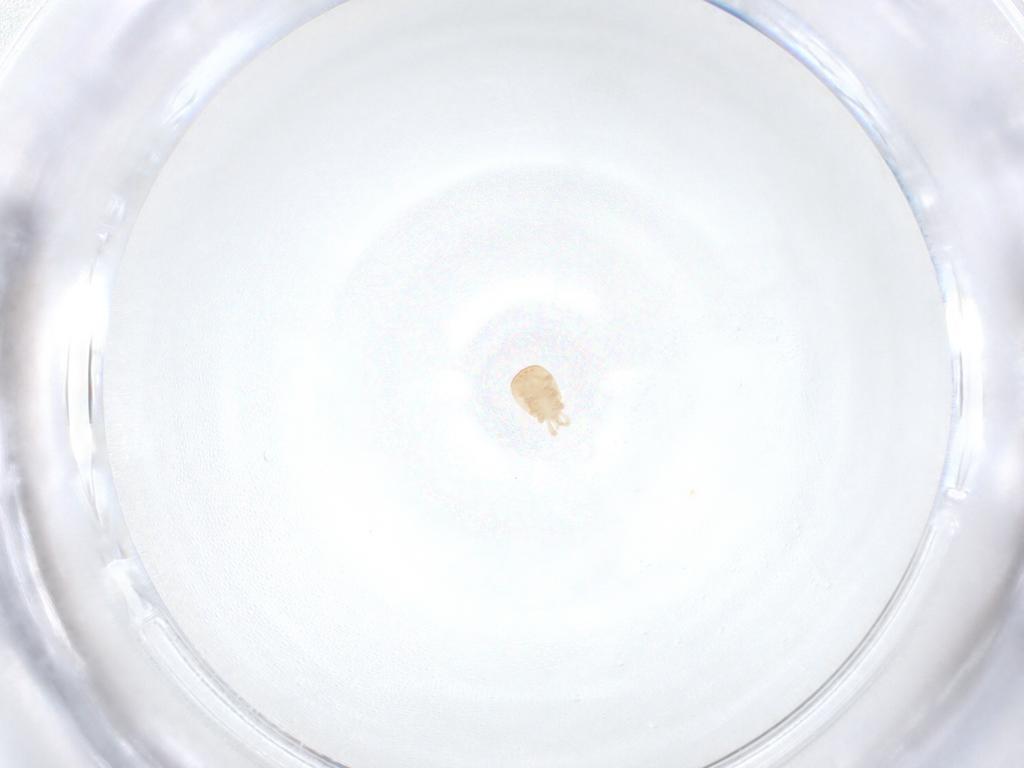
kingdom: Animalia
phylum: Arthropoda
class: Arachnida
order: Mesostigmata
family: Zerconidae
